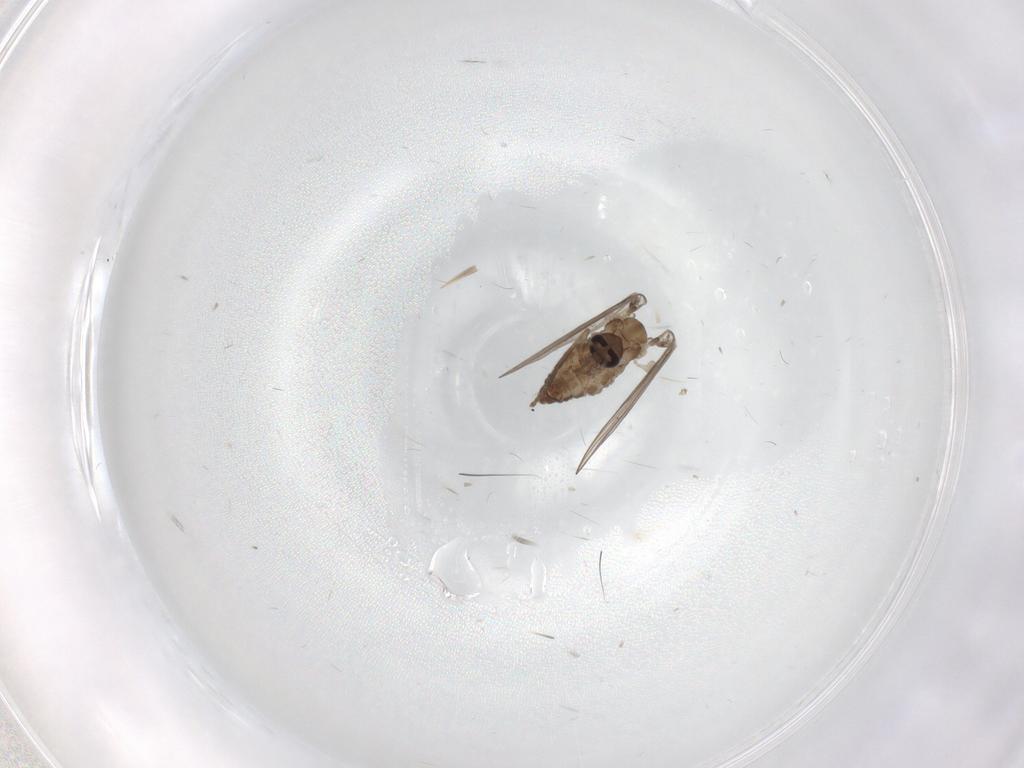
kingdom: Animalia
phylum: Arthropoda
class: Insecta
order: Diptera
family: Psychodidae
